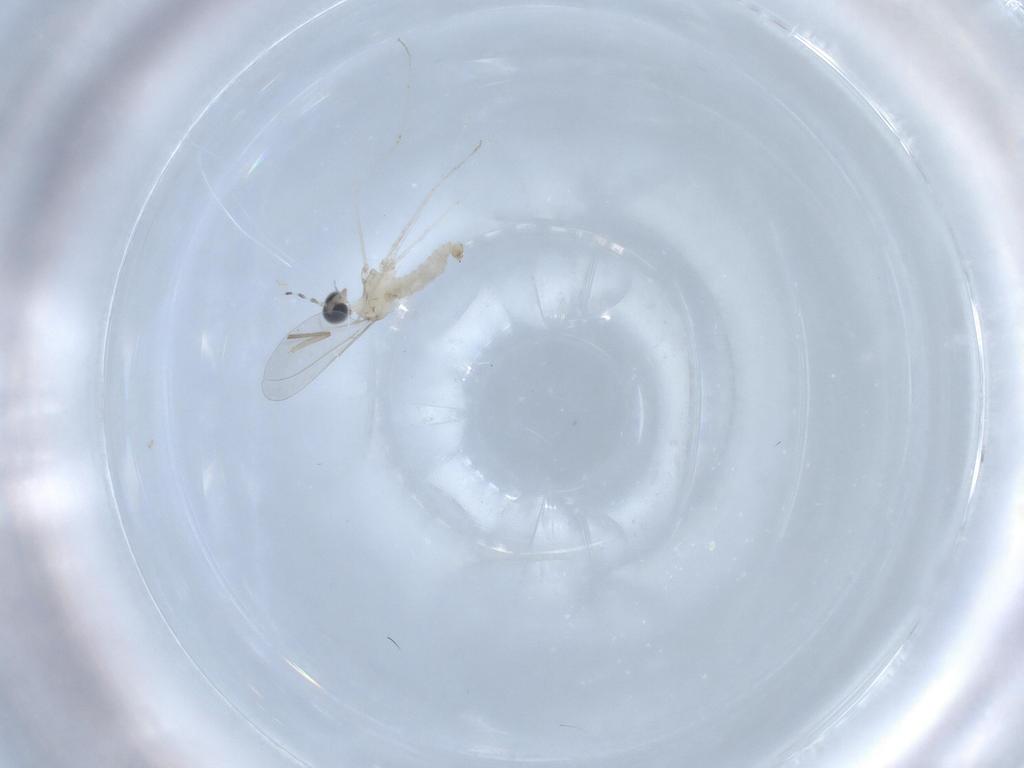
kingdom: Animalia
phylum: Arthropoda
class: Insecta
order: Diptera
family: Cecidomyiidae
